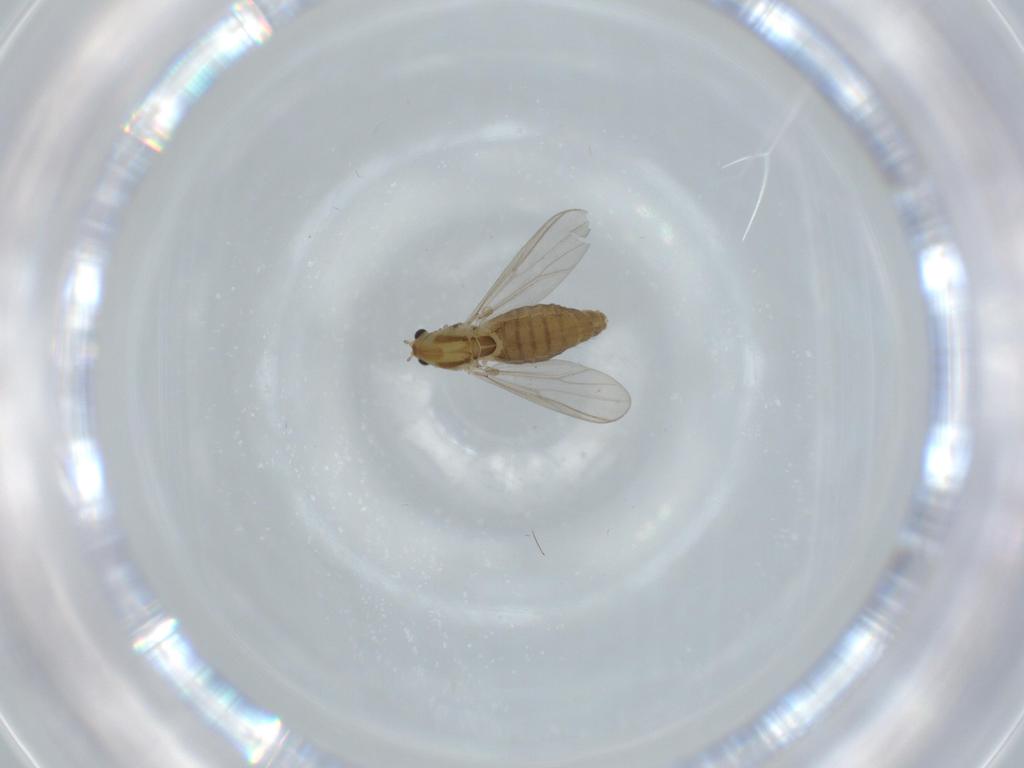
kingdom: Animalia
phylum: Arthropoda
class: Insecta
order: Diptera
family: Chironomidae
